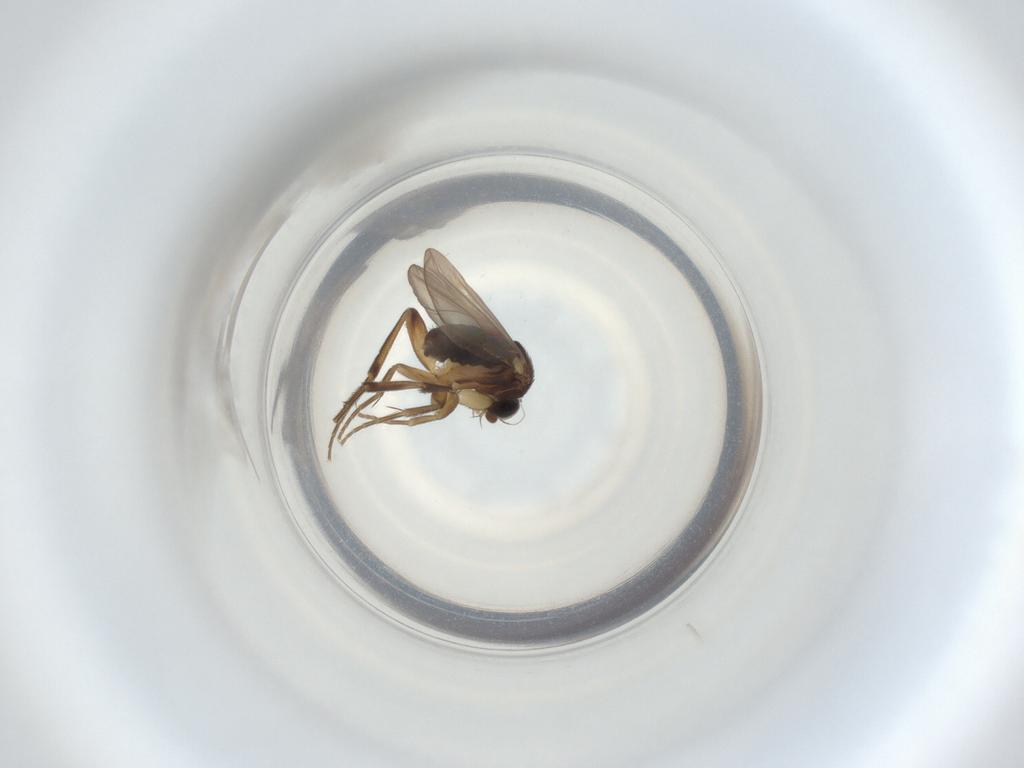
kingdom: Animalia
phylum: Arthropoda
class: Insecta
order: Diptera
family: Phoridae
